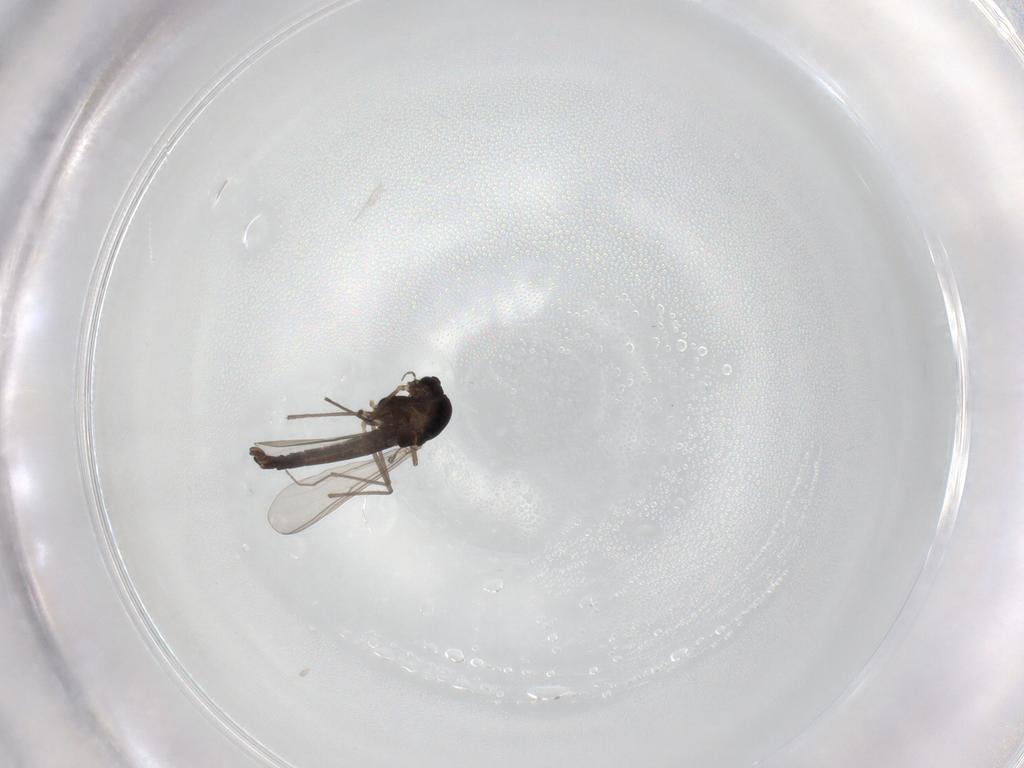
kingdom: Animalia
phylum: Arthropoda
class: Insecta
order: Diptera
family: Chironomidae
